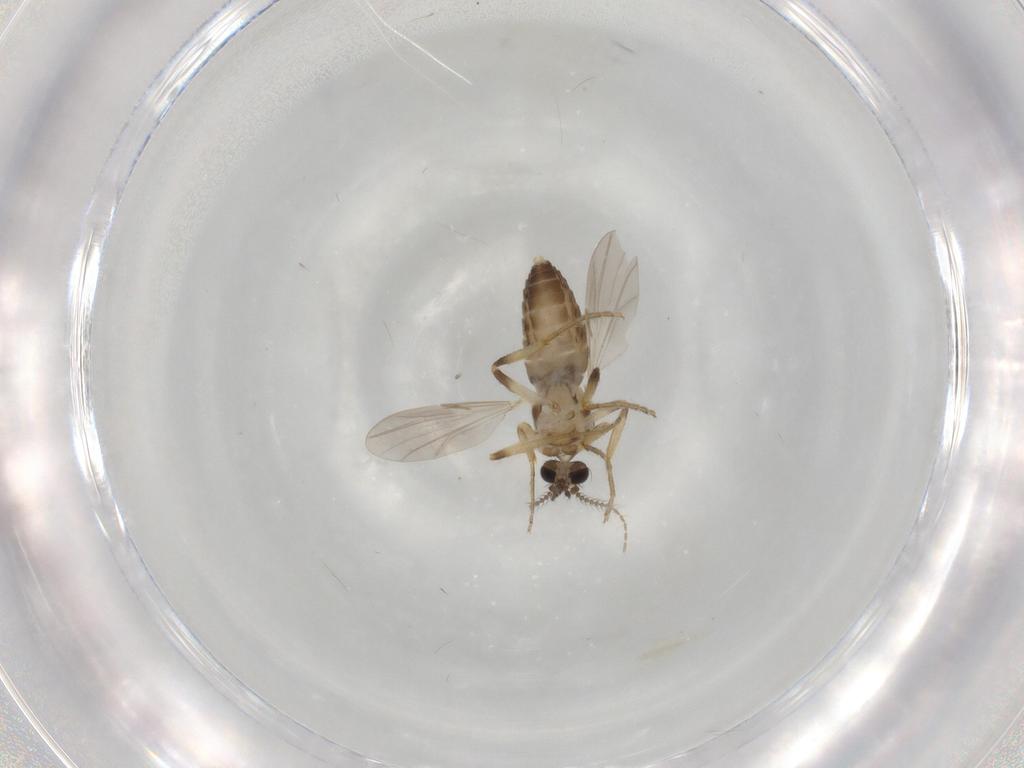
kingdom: Animalia
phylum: Arthropoda
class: Insecta
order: Diptera
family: Ceratopogonidae
